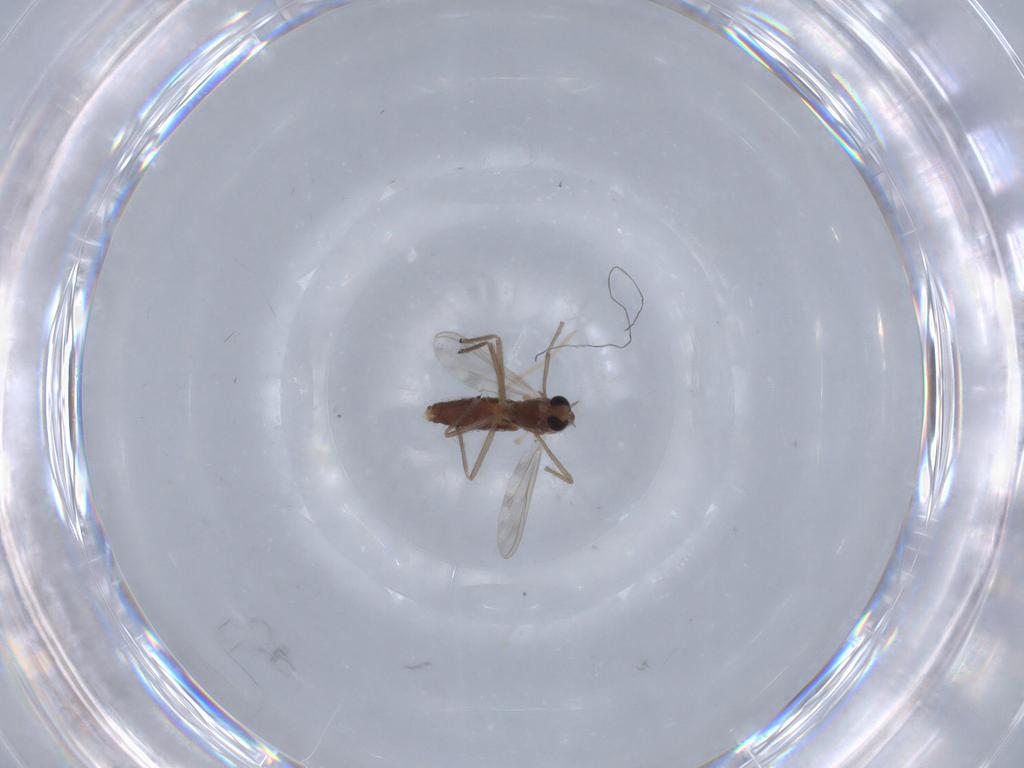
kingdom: Animalia
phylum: Arthropoda
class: Insecta
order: Diptera
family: Chironomidae
